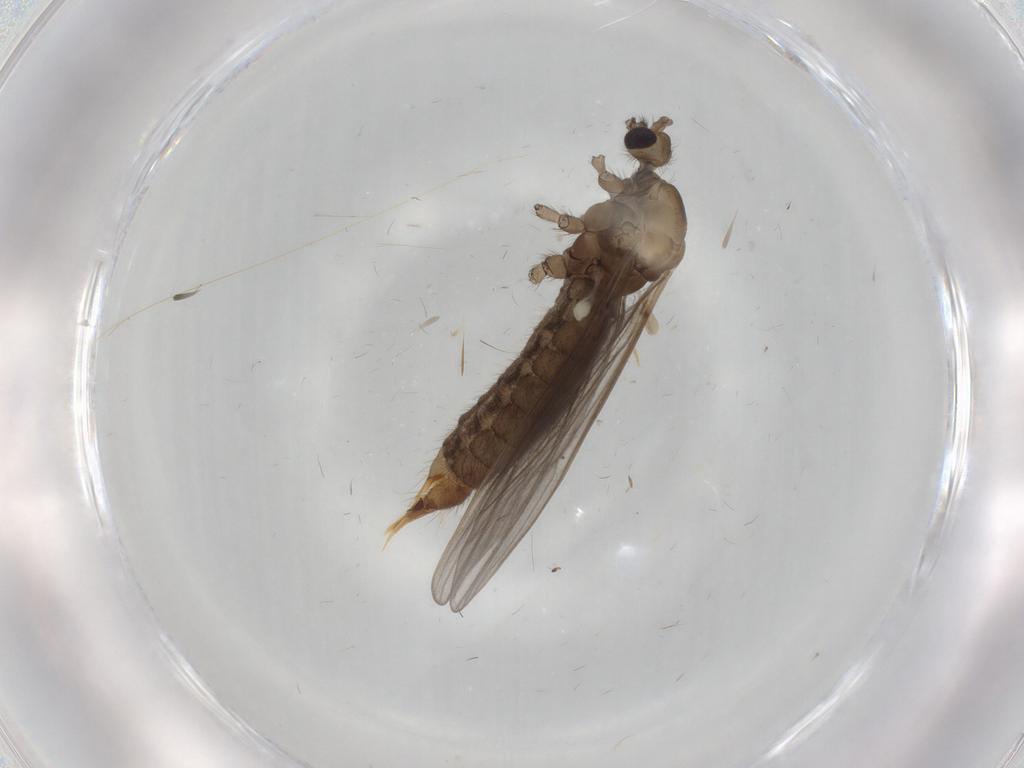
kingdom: Animalia
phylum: Arthropoda
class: Insecta
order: Diptera
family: Limoniidae
